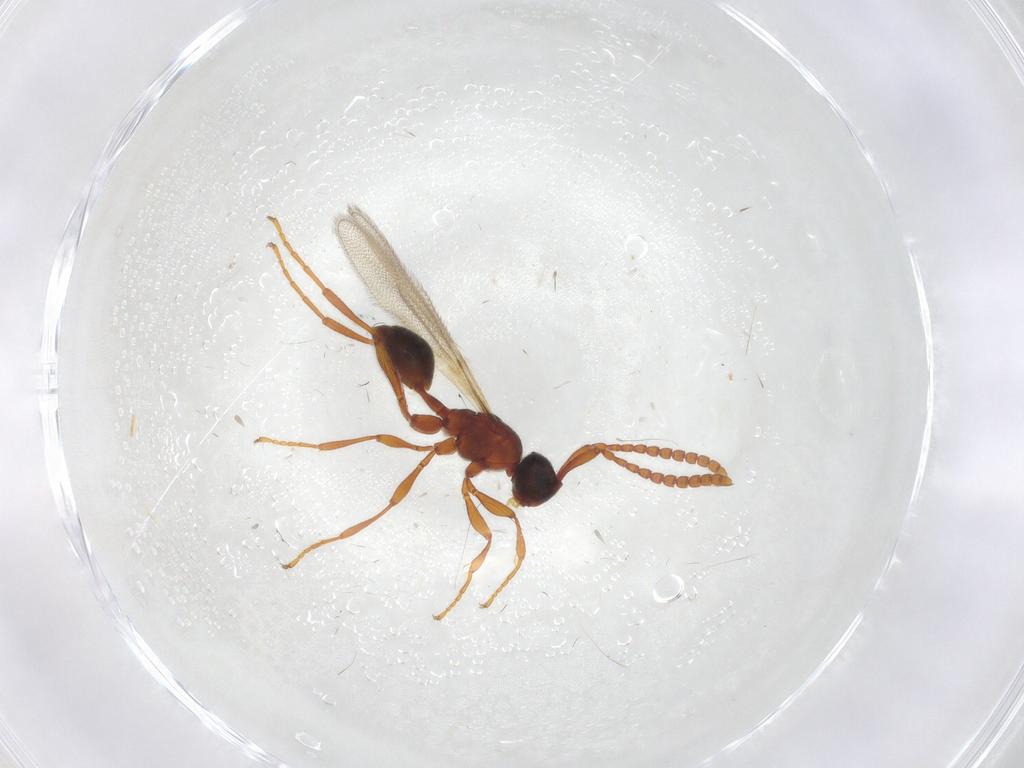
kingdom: Animalia
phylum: Arthropoda
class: Insecta
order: Hymenoptera
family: Diapriidae
